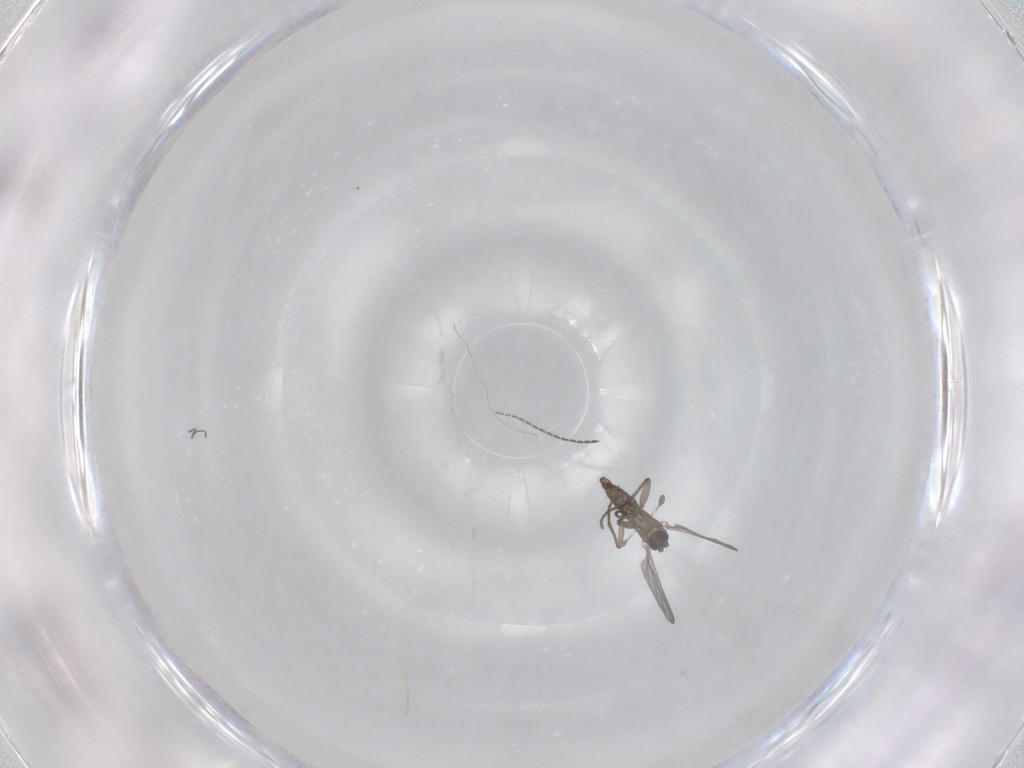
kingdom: Animalia
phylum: Arthropoda
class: Insecta
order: Diptera
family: Sciaridae
